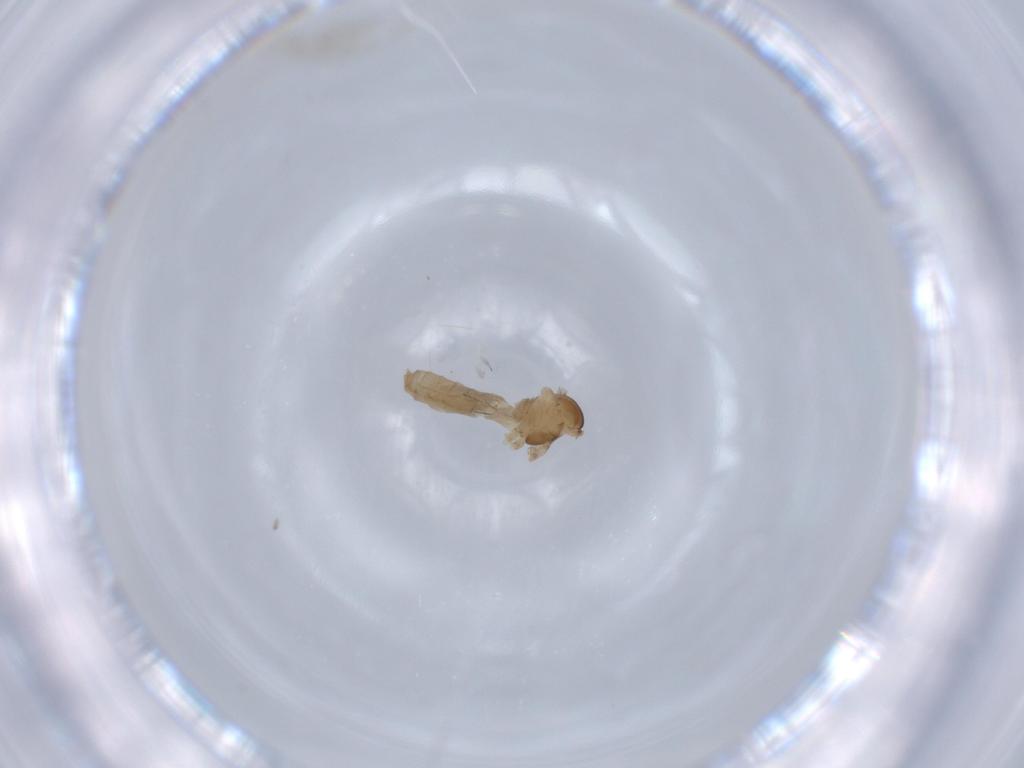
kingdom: Animalia
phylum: Arthropoda
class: Insecta
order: Diptera
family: Cecidomyiidae
